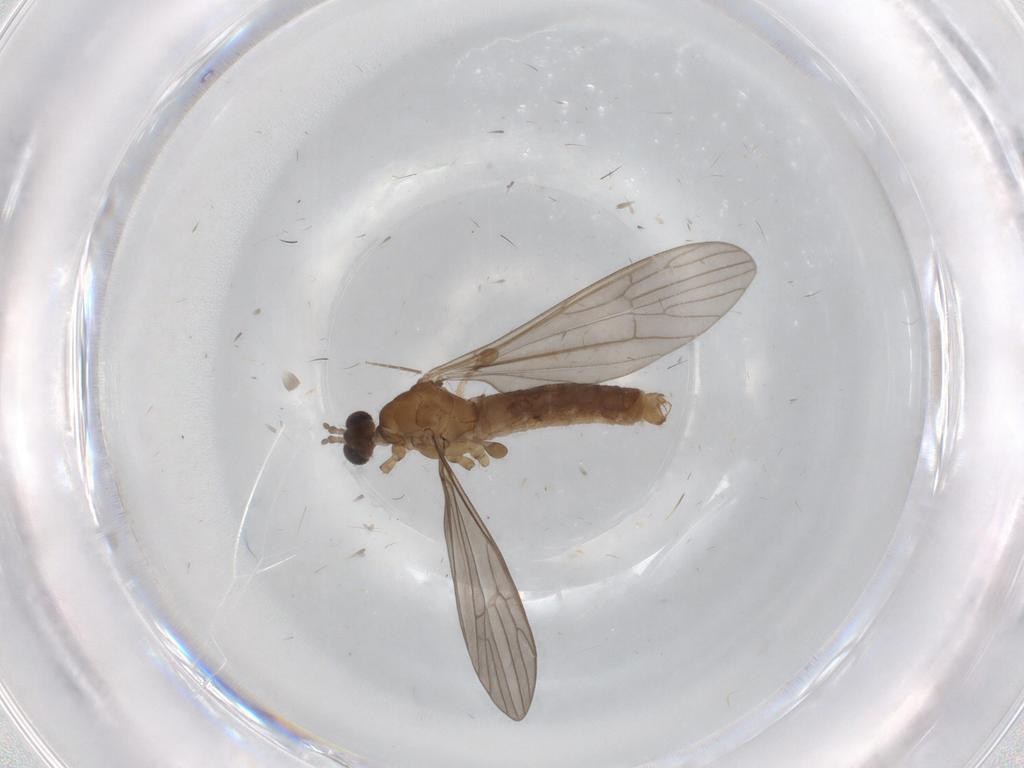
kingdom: Animalia
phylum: Arthropoda
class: Insecta
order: Diptera
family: Cecidomyiidae
